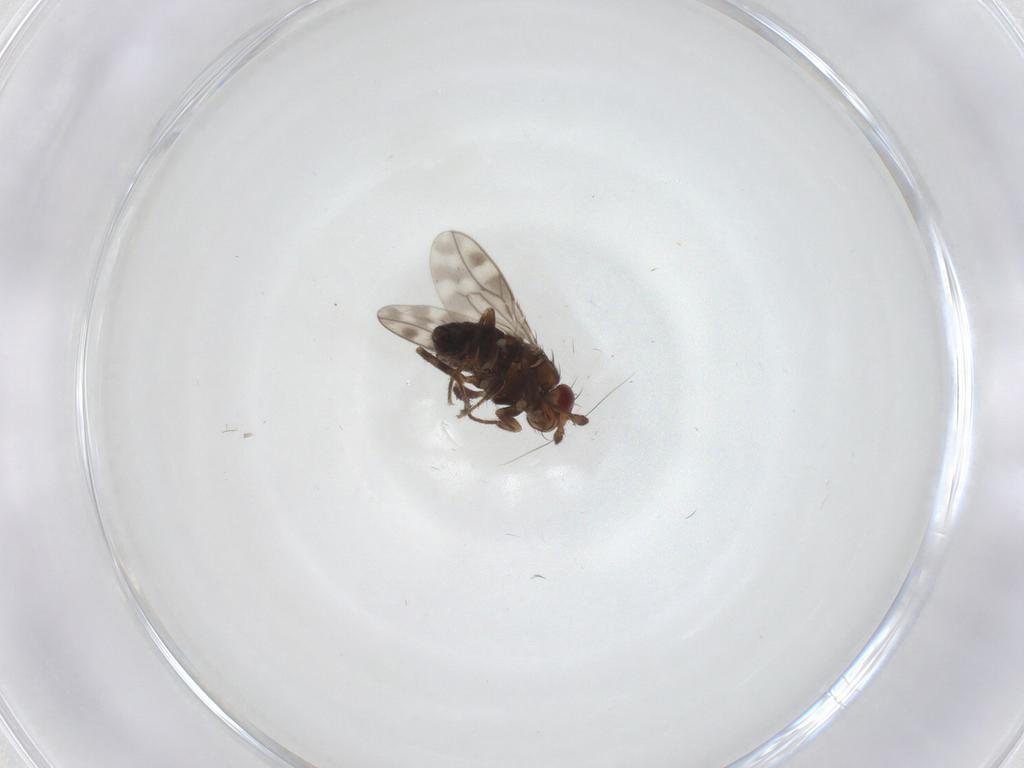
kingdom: Animalia
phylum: Arthropoda
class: Insecta
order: Diptera
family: Sphaeroceridae
